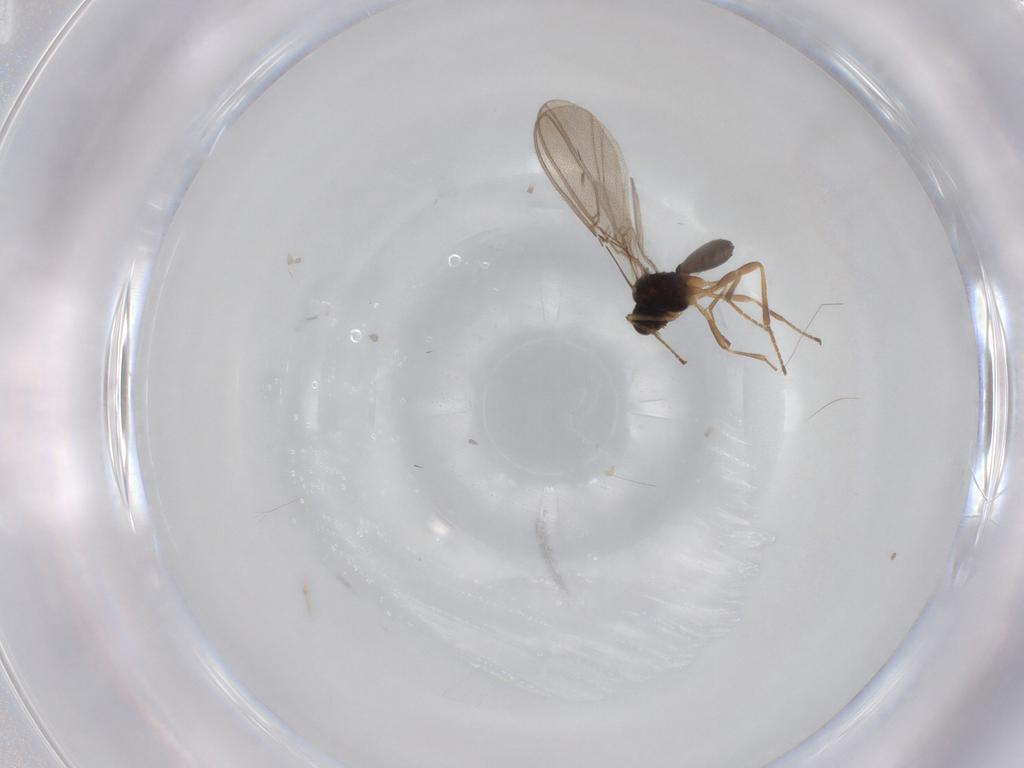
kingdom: Animalia
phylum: Arthropoda
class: Insecta
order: Hymenoptera
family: Braconidae
